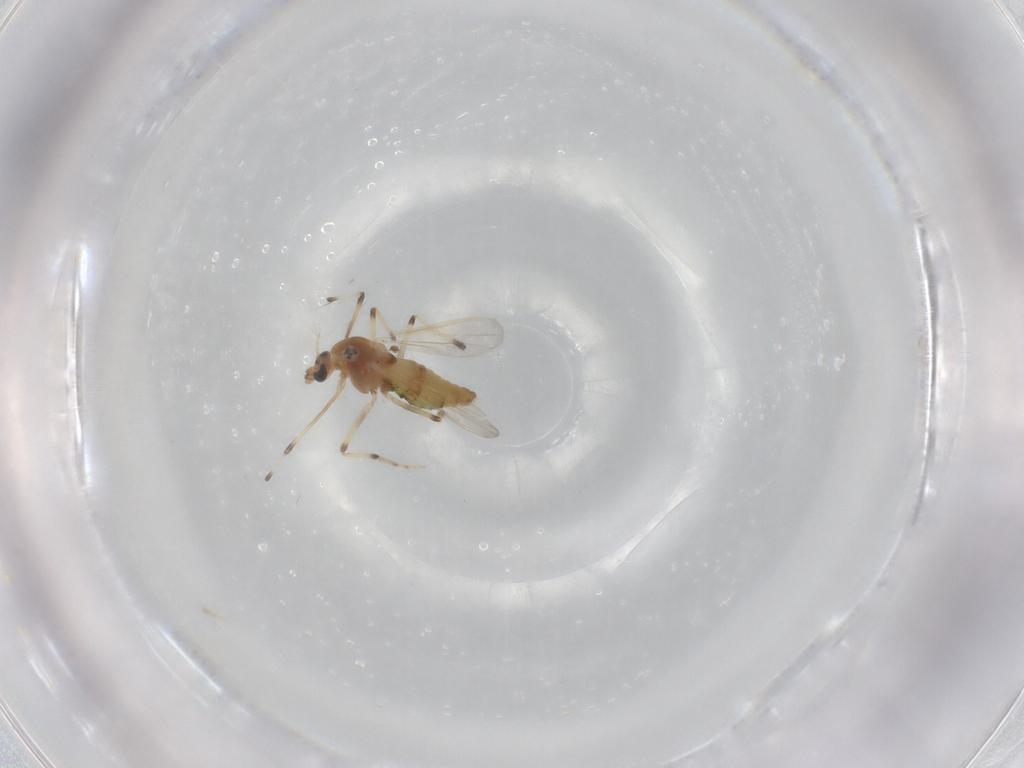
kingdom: Animalia
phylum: Arthropoda
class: Insecta
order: Diptera
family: Chironomidae
